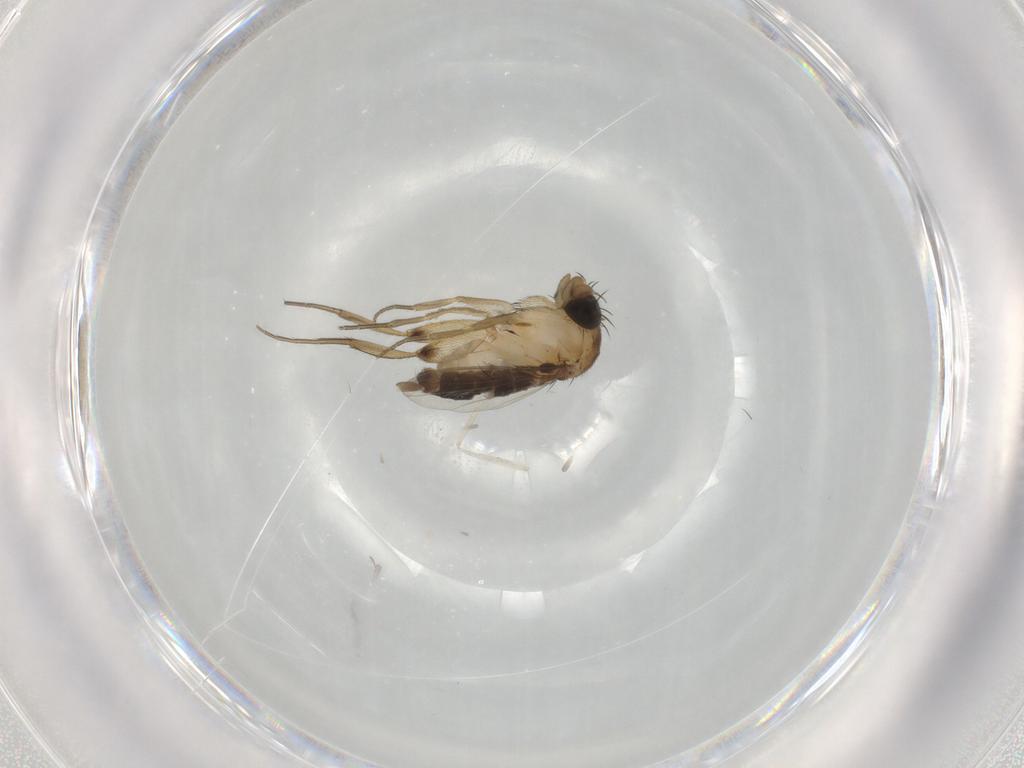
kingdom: Animalia
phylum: Arthropoda
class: Insecta
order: Diptera
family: Phoridae
